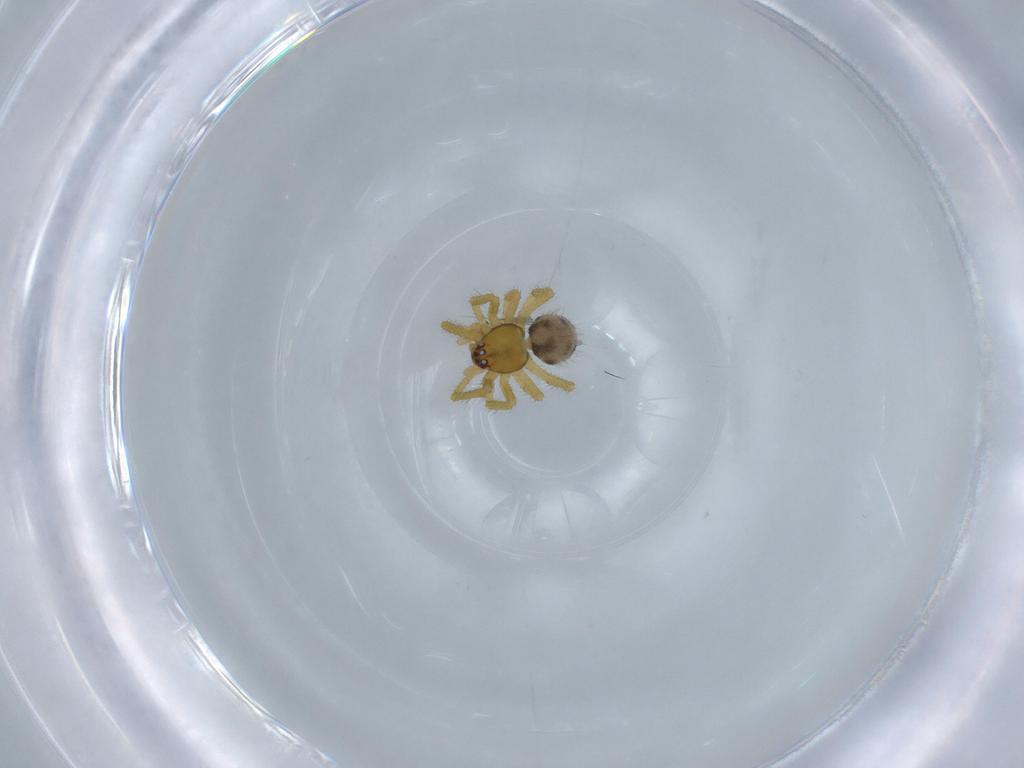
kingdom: Animalia
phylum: Arthropoda
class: Arachnida
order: Araneae
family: Theridiidae
